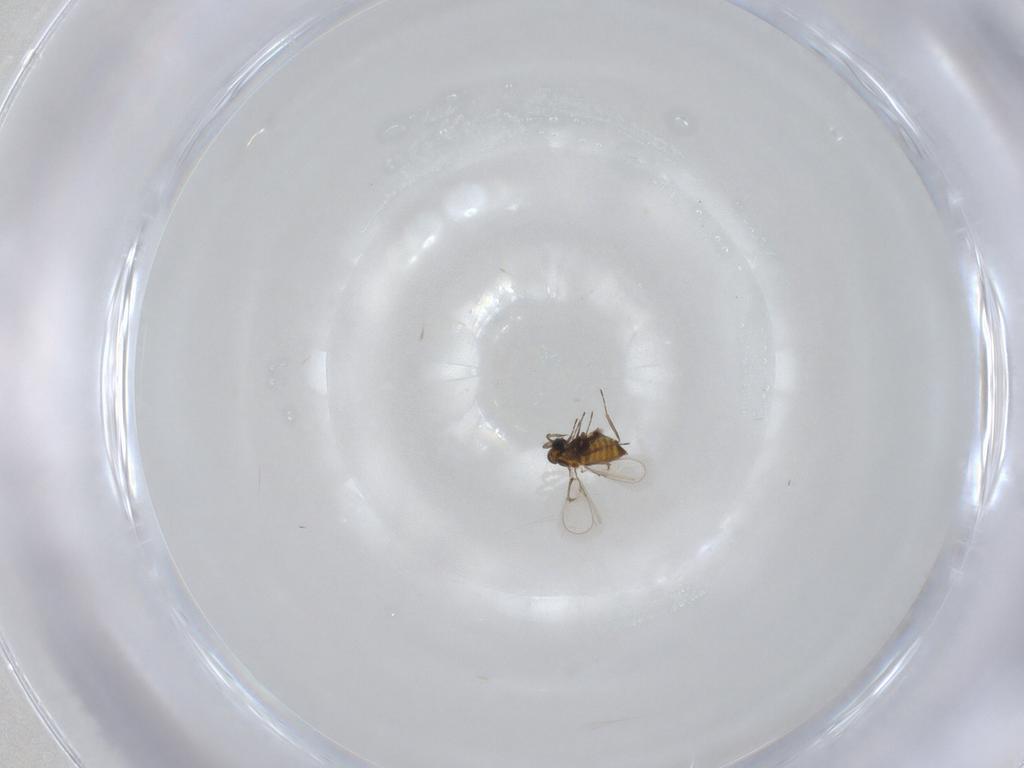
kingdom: Animalia
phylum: Arthropoda
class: Insecta
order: Hymenoptera
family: Trichogrammatidae
